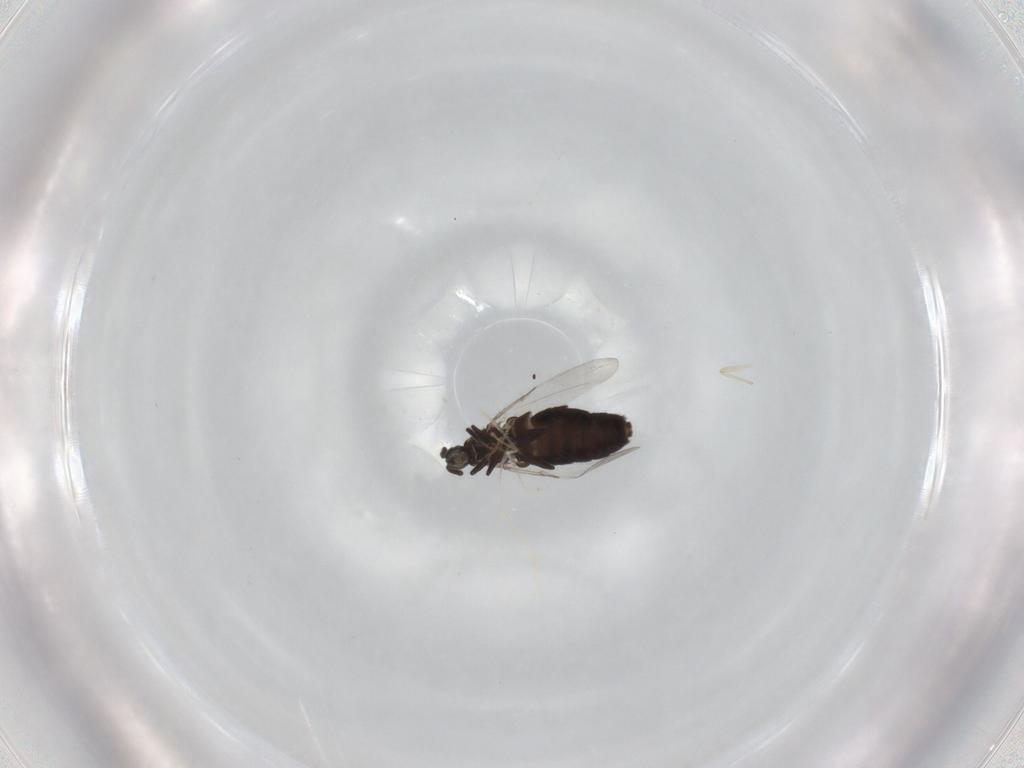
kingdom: Animalia
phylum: Arthropoda
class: Insecta
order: Diptera
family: Scatopsidae
